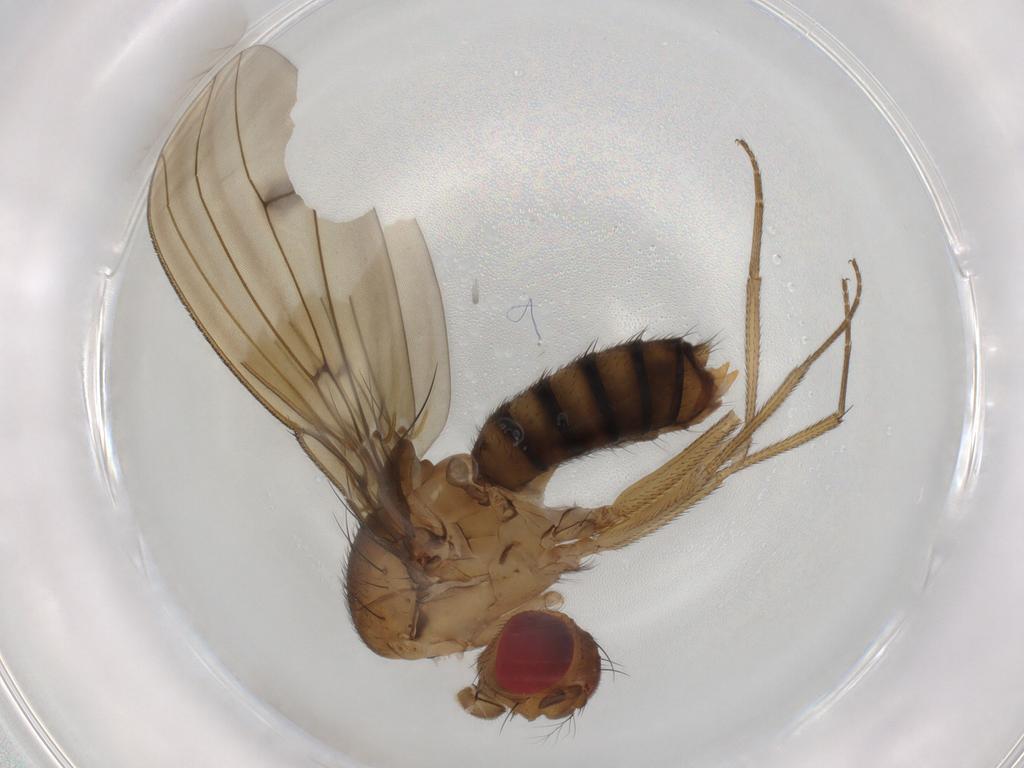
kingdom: Animalia
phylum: Arthropoda
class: Insecta
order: Diptera
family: Drosophilidae
